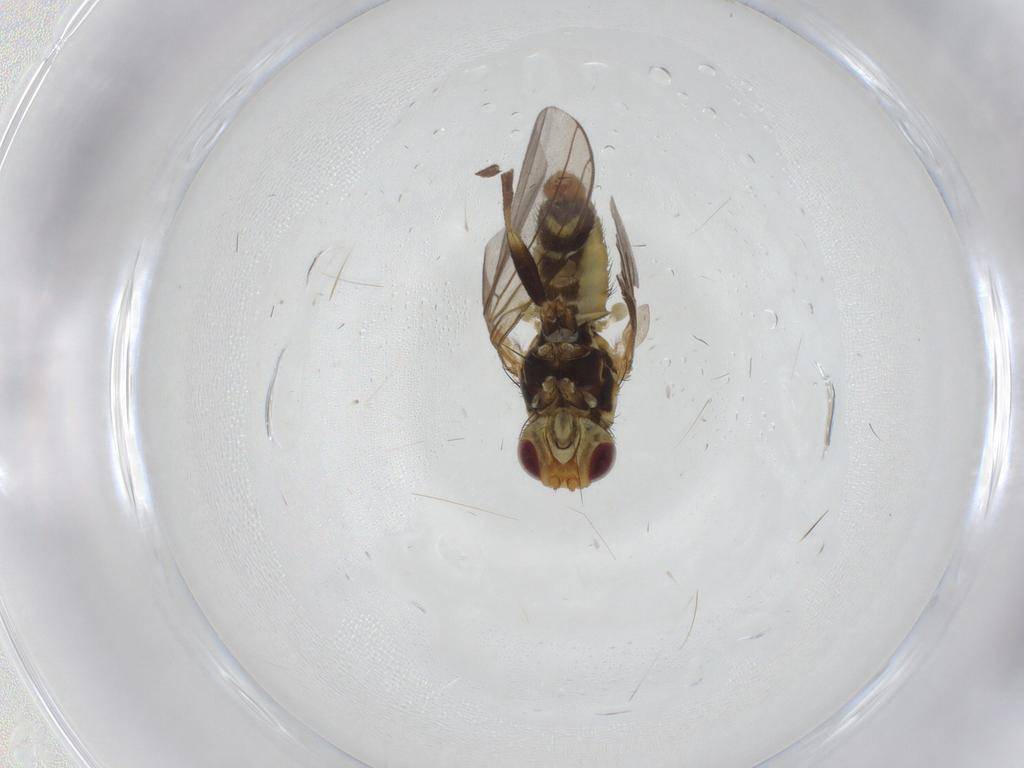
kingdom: Animalia
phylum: Arthropoda
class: Insecta
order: Diptera
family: Agromyzidae
